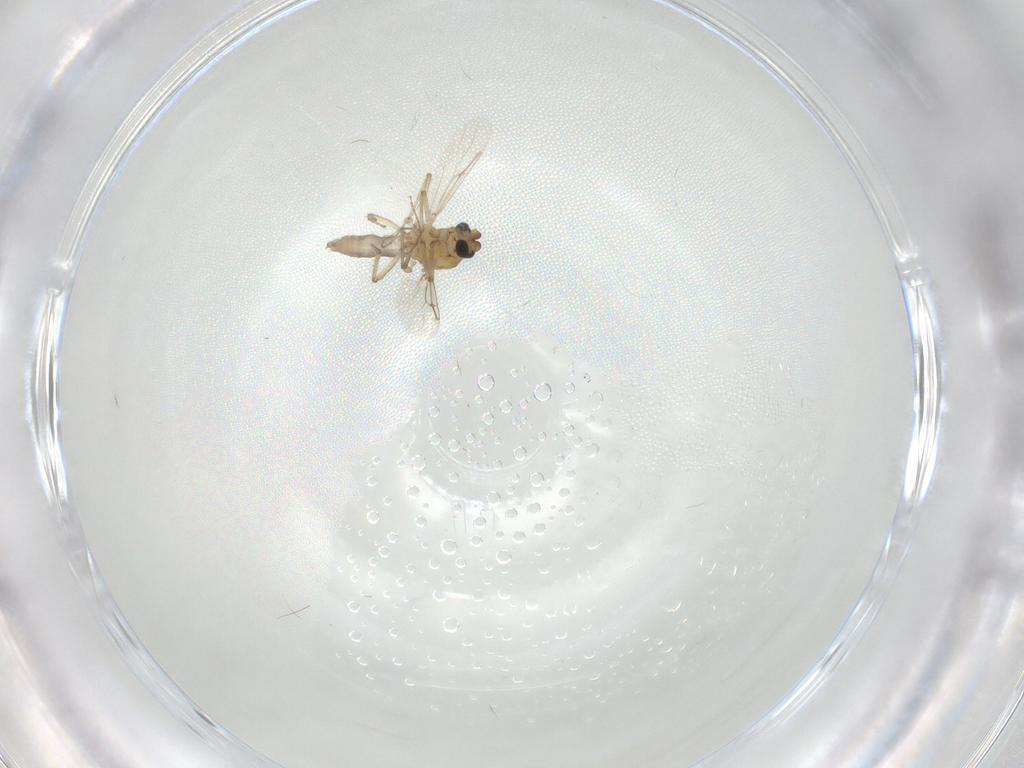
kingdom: Animalia
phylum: Arthropoda
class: Insecta
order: Diptera
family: Ceratopogonidae
